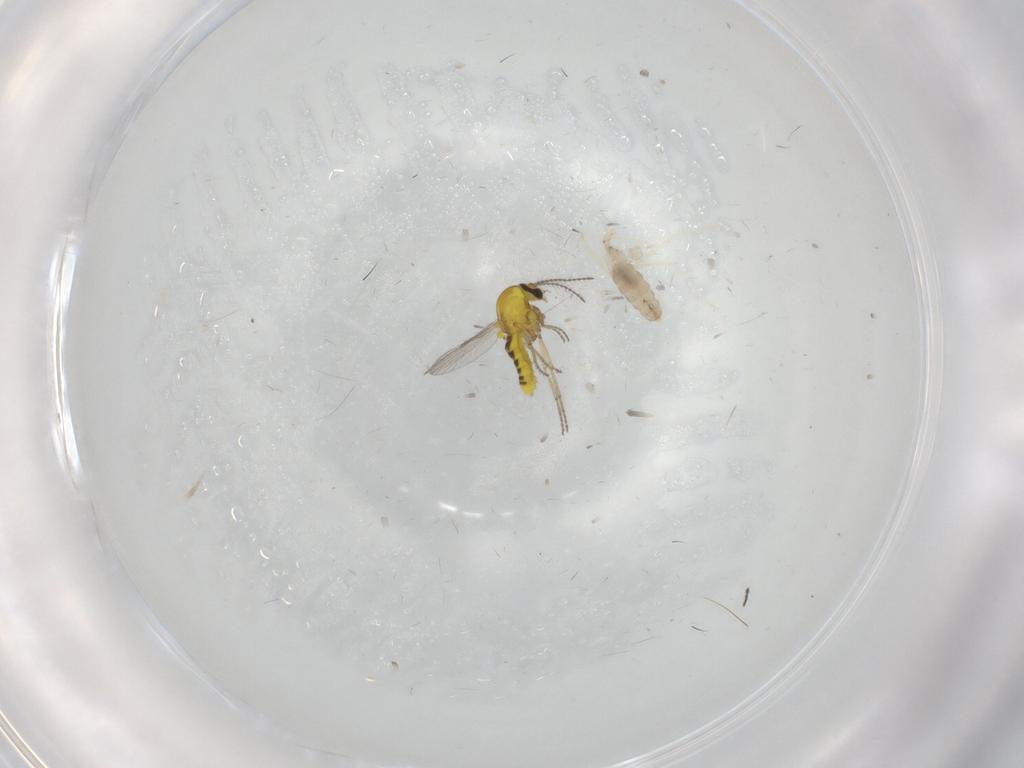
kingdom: Animalia
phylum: Arthropoda
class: Insecta
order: Diptera
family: Cecidomyiidae
